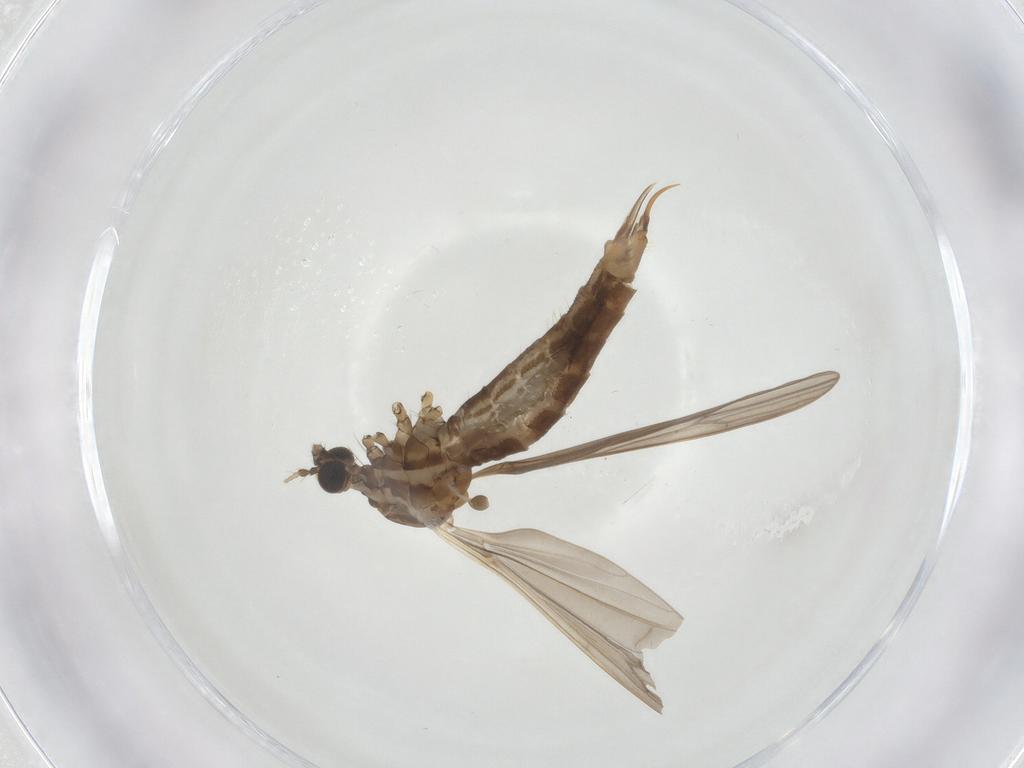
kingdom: Animalia
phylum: Arthropoda
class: Insecta
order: Diptera
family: Limoniidae
